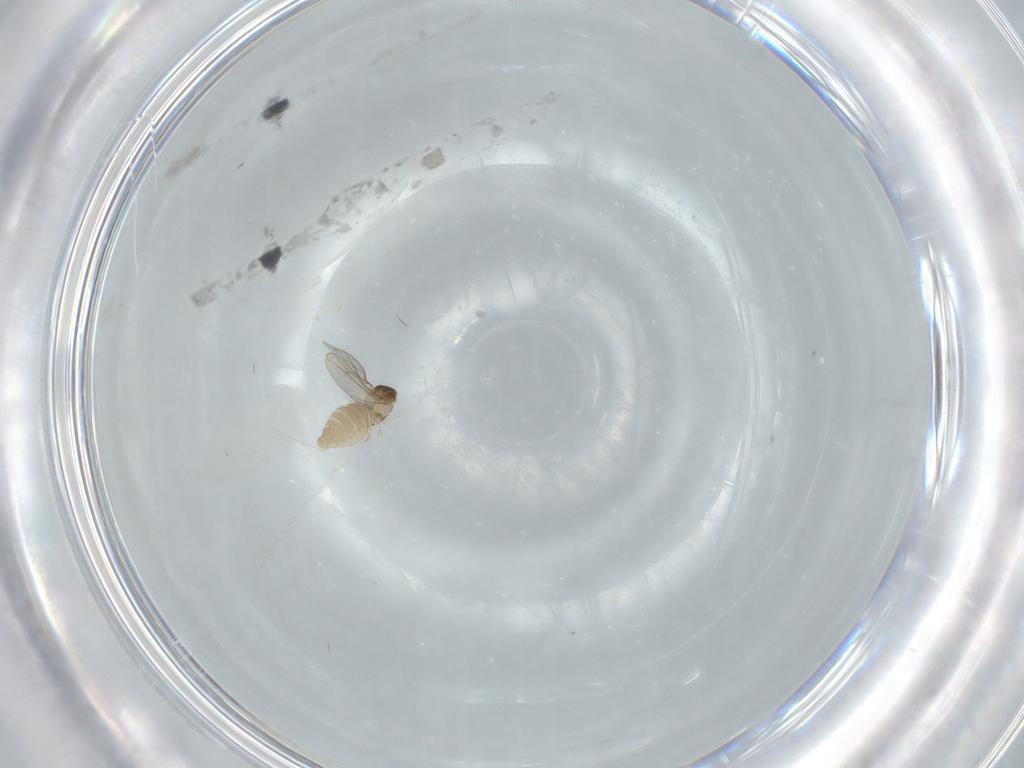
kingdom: Animalia
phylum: Arthropoda
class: Insecta
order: Diptera
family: Cecidomyiidae
